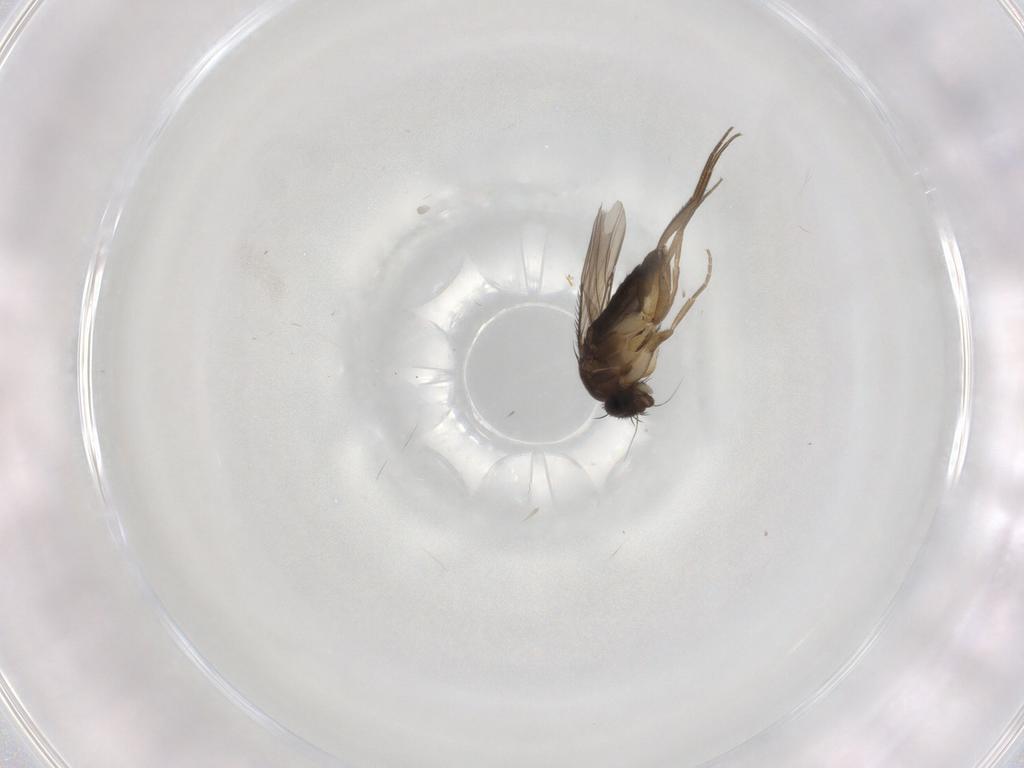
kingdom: Animalia
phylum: Arthropoda
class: Insecta
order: Diptera
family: Phoridae
